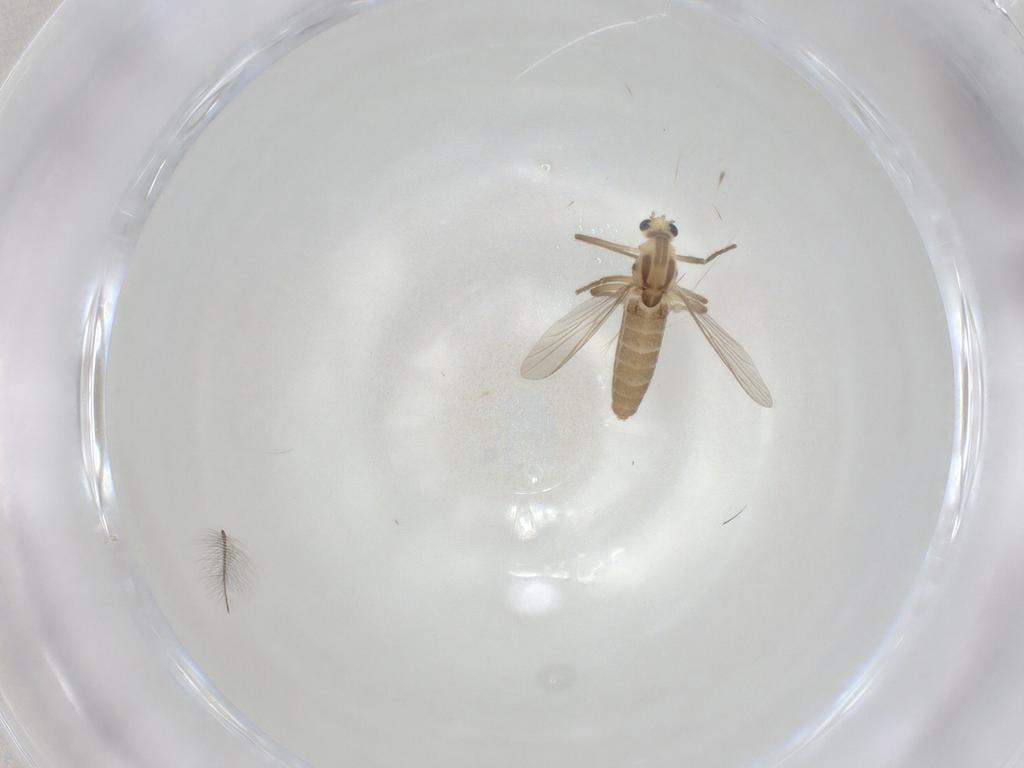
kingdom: Animalia
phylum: Arthropoda
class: Insecta
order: Diptera
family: Chironomidae
